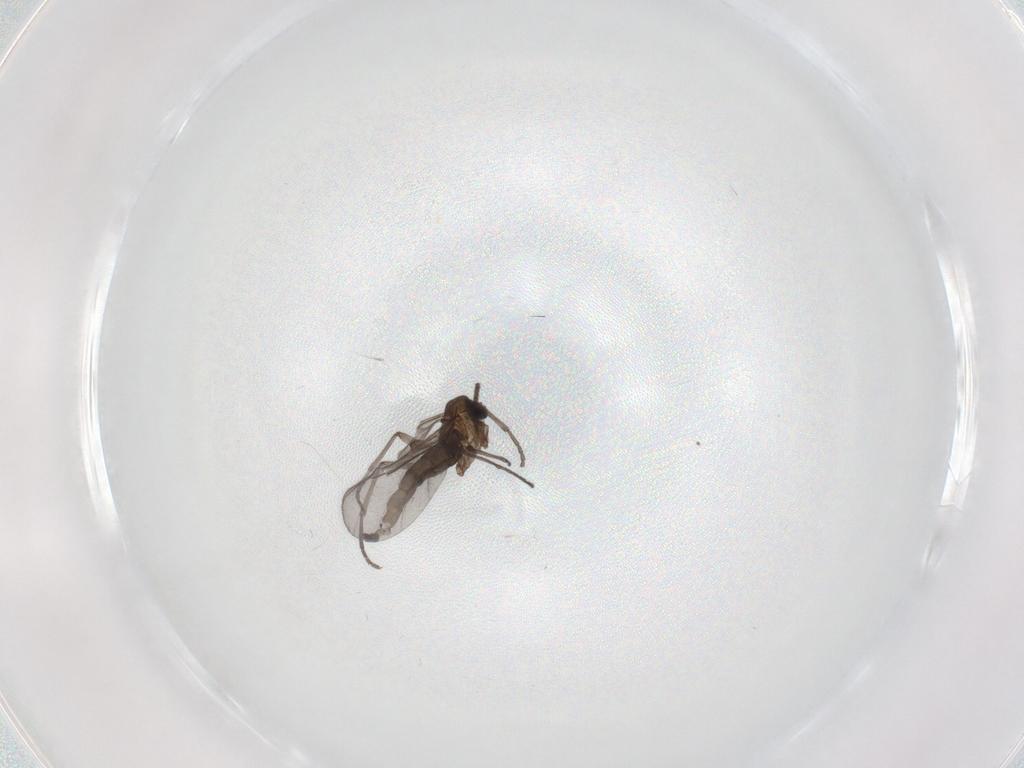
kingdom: Animalia
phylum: Arthropoda
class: Insecta
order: Diptera
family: Sciaridae
